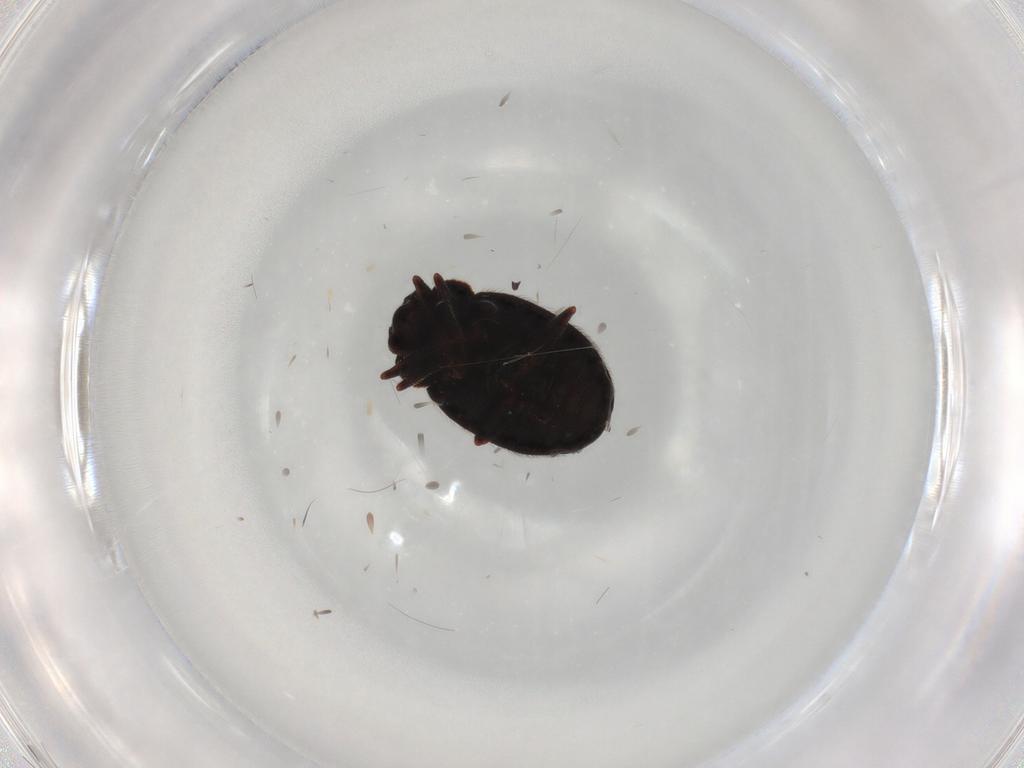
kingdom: Animalia
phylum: Arthropoda
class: Insecta
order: Coleoptera
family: Sphindidae
